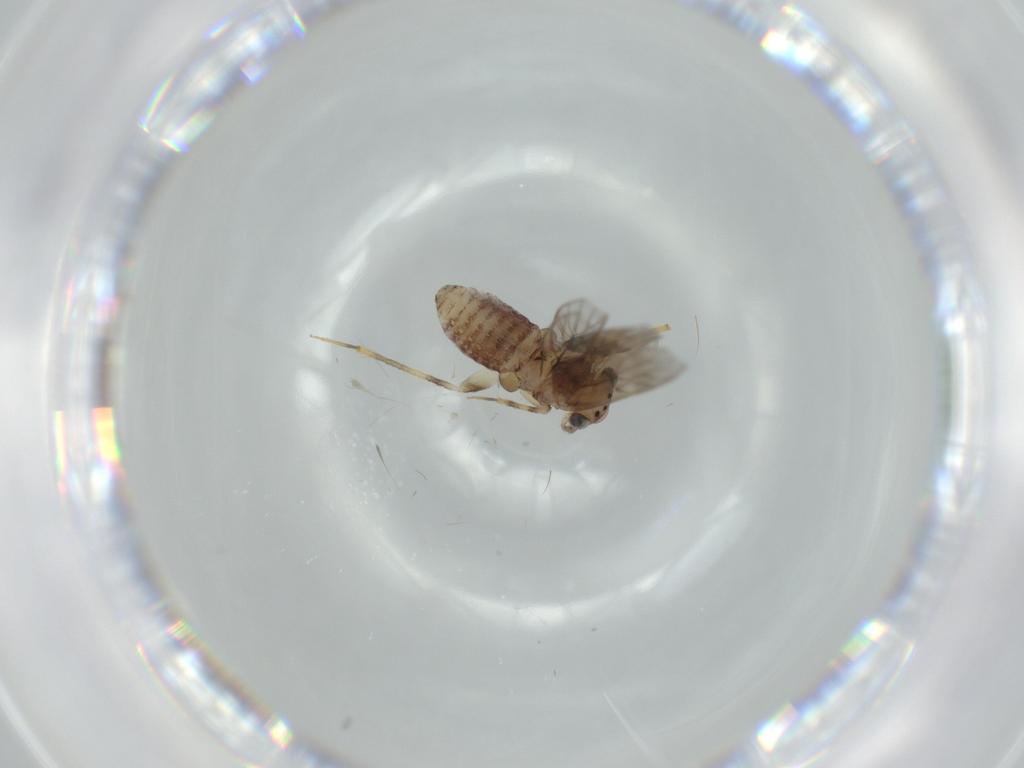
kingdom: Animalia
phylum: Arthropoda
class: Insecta
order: Psocodea
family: Lepidopsocidae
